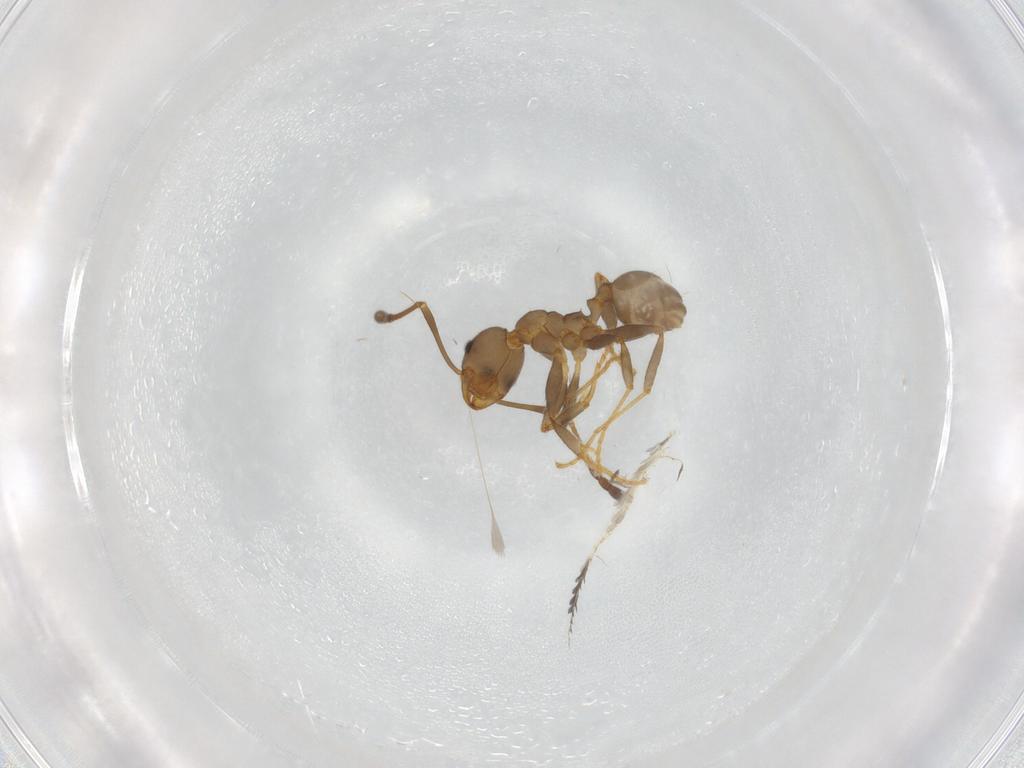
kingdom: Animalia
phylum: Arthropoda
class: Insecta
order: Hymenoptera
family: Formicidae
